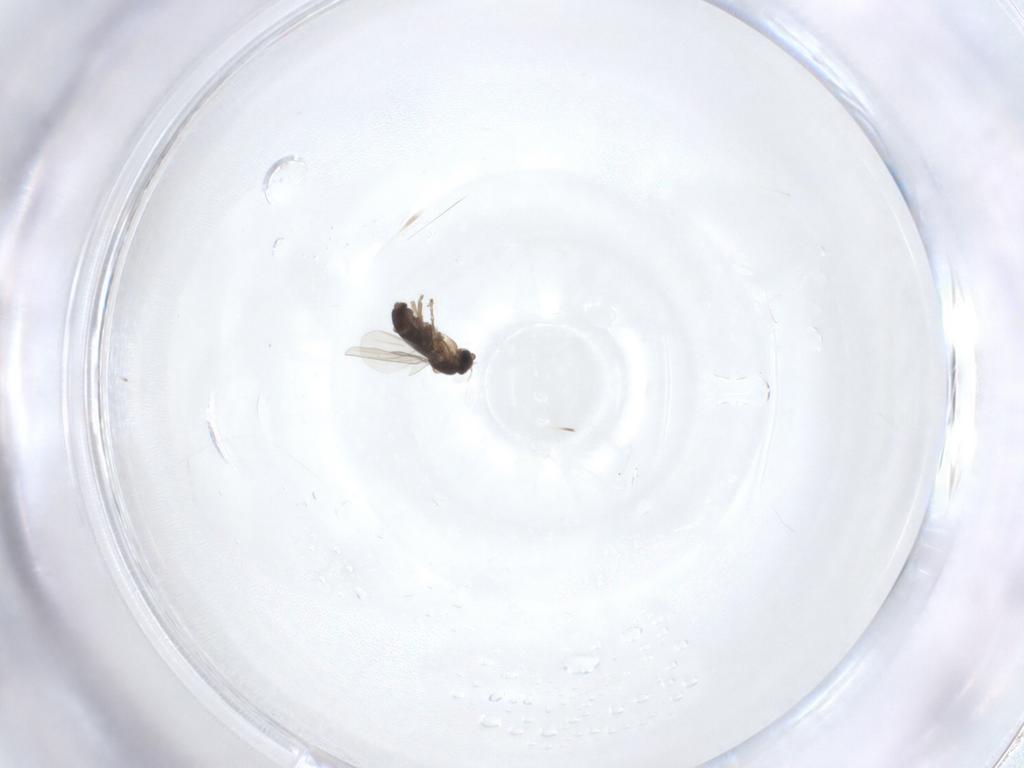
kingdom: Animalia
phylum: Arthropoda
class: Insecta
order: Diptera
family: Phoridae
